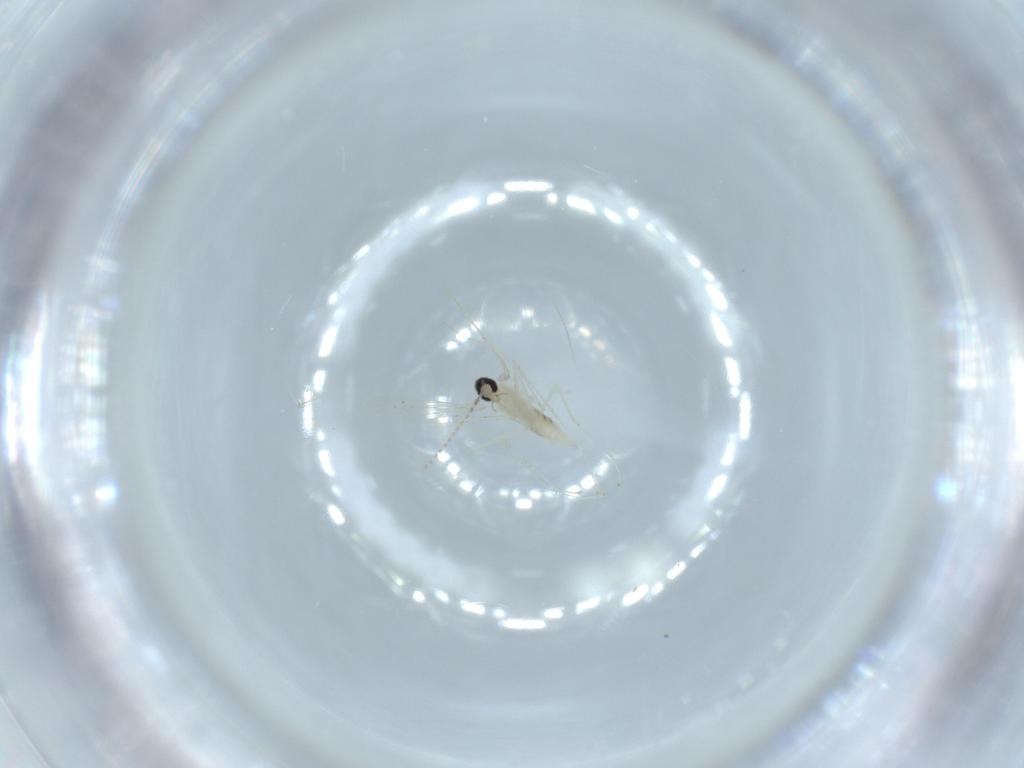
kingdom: Animalia
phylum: Arthropoda
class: Insecta
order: Diptera
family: Cecidomyiidae
